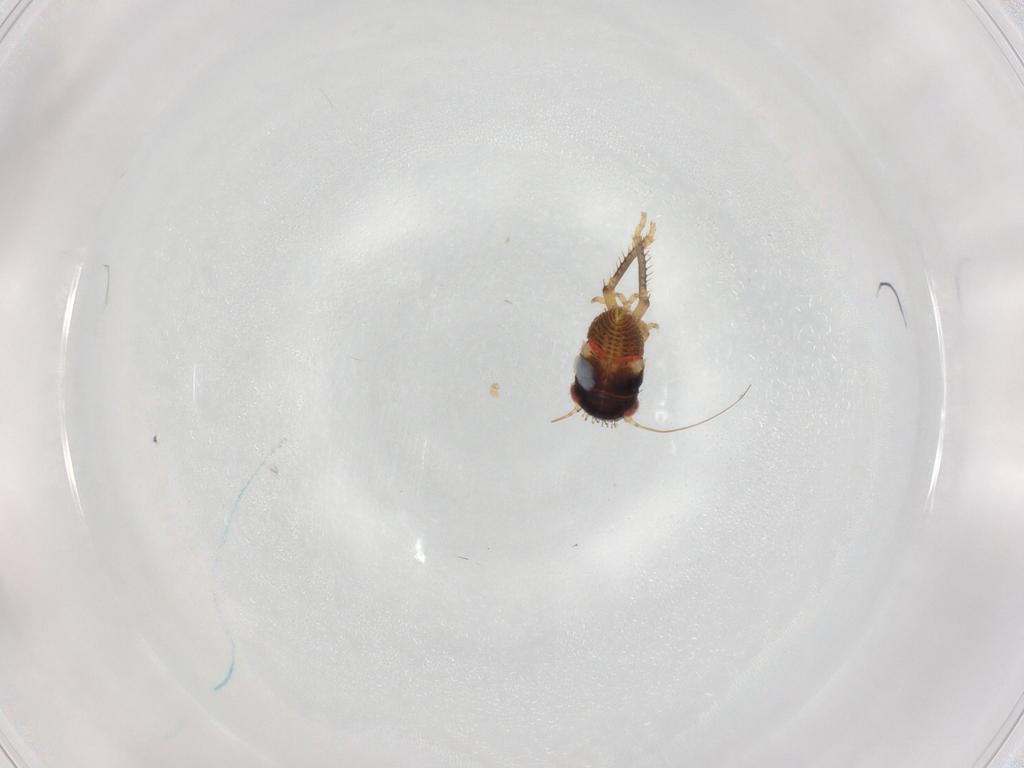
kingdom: Animalia
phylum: Arthropoda
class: Insecta
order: Hemiptera
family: Cicadellidae
